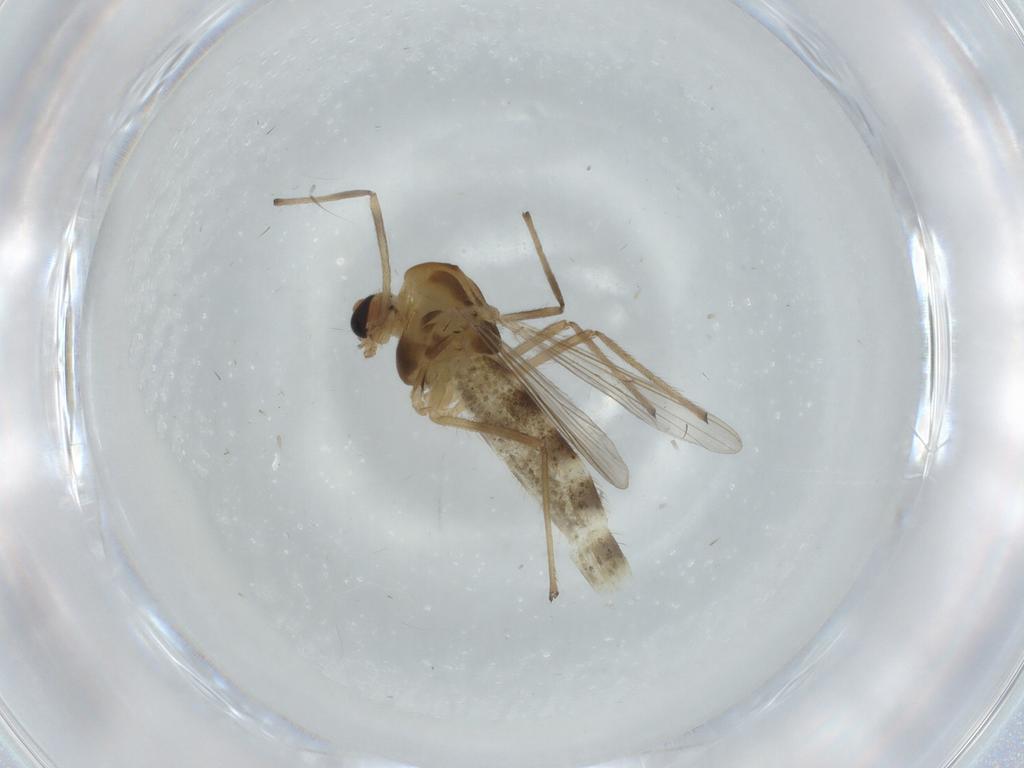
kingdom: Animalia
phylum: Arthropoda
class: Insecta
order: Diptera
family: Chironomidae
